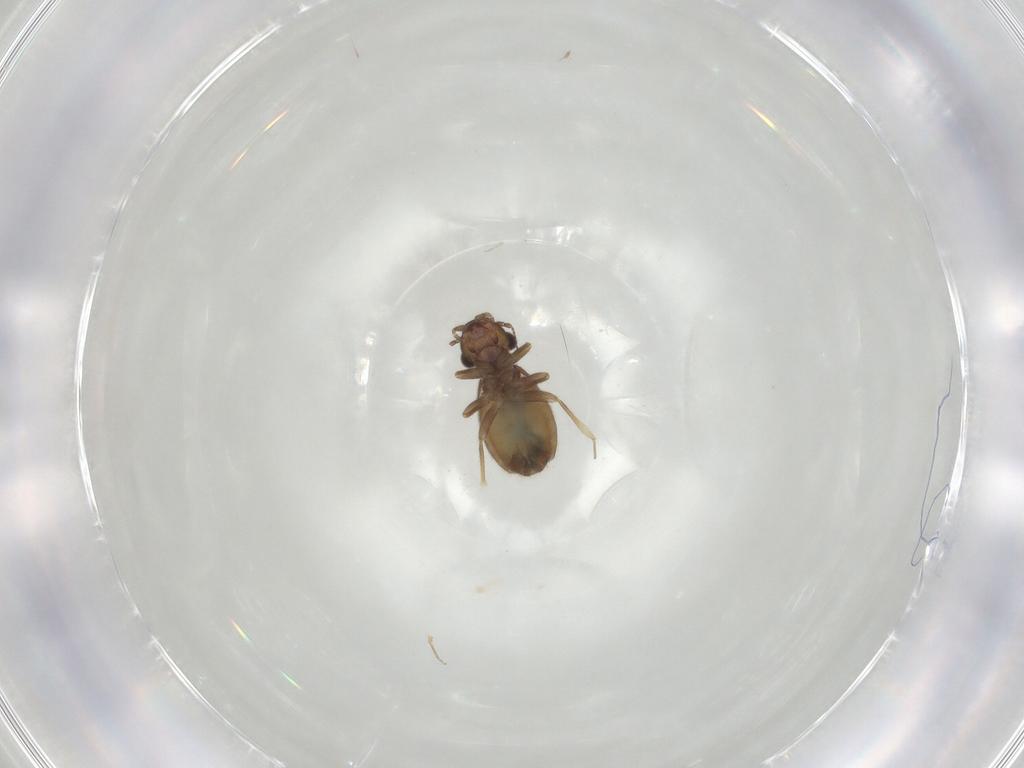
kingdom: Animalia
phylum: Arthropoda
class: Insecta
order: Psocodea
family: Trogiidae
